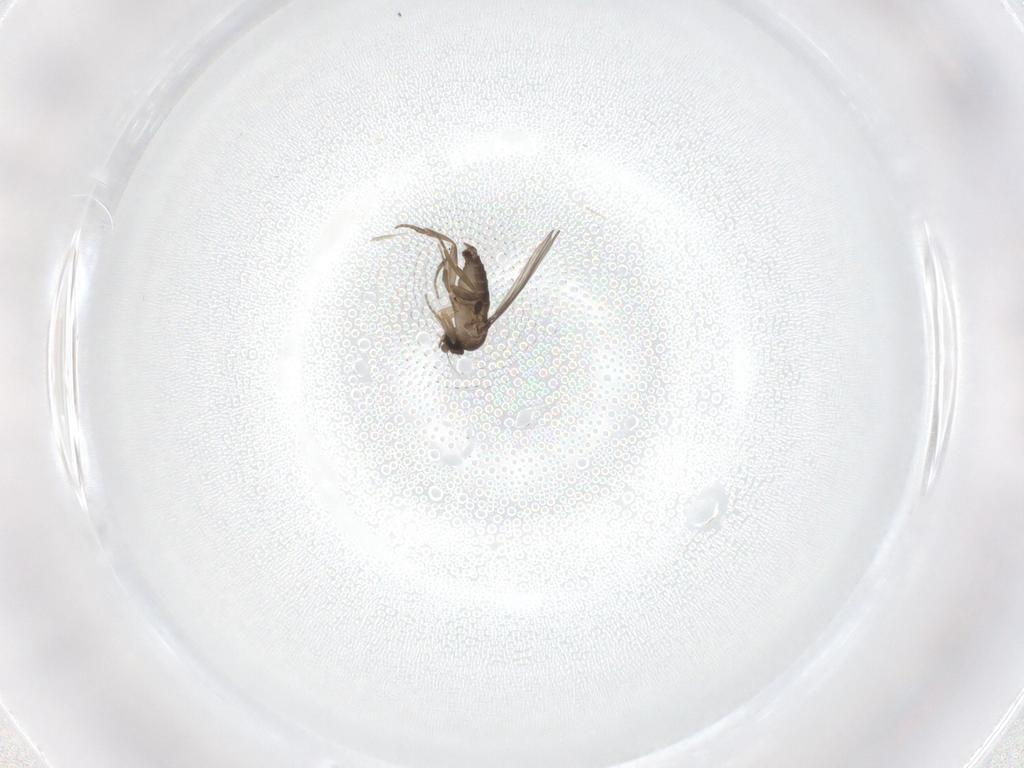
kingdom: Animalia
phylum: Arthropoda
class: Insecta
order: Diptera
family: Phoridae
